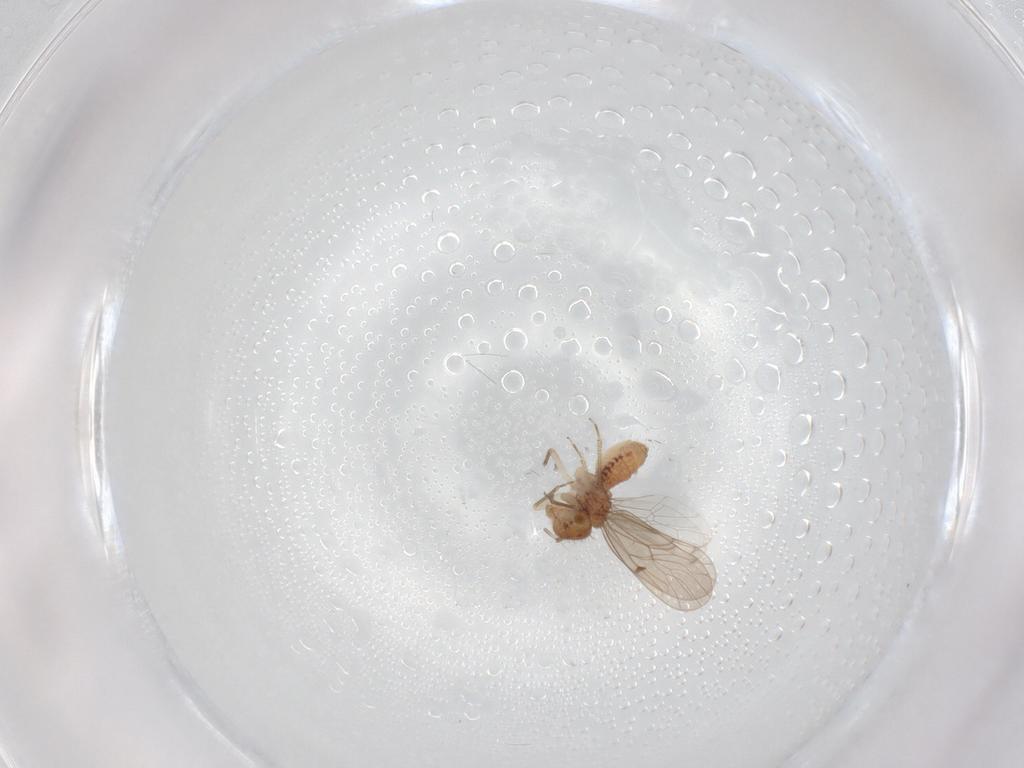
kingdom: Animalia
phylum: Arthropoda
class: Insecta
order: Psocodea
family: Ectopsocidae
